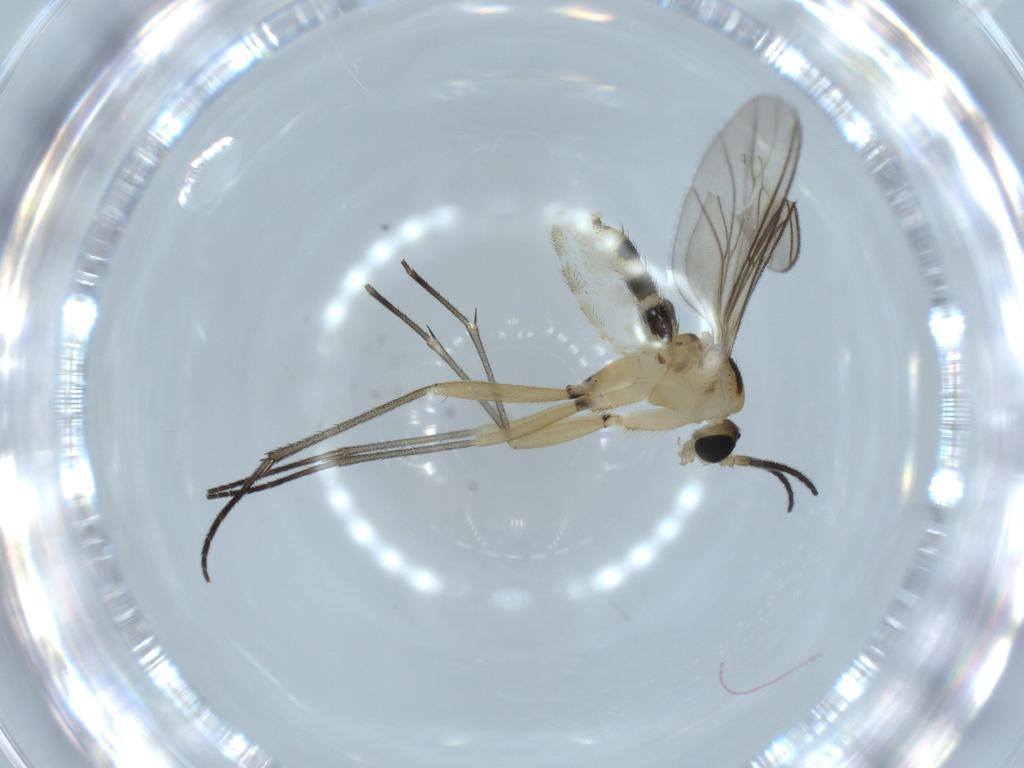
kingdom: Animalia
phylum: Arthropoda
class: Insecta
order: Diptera
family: Sciaridae
